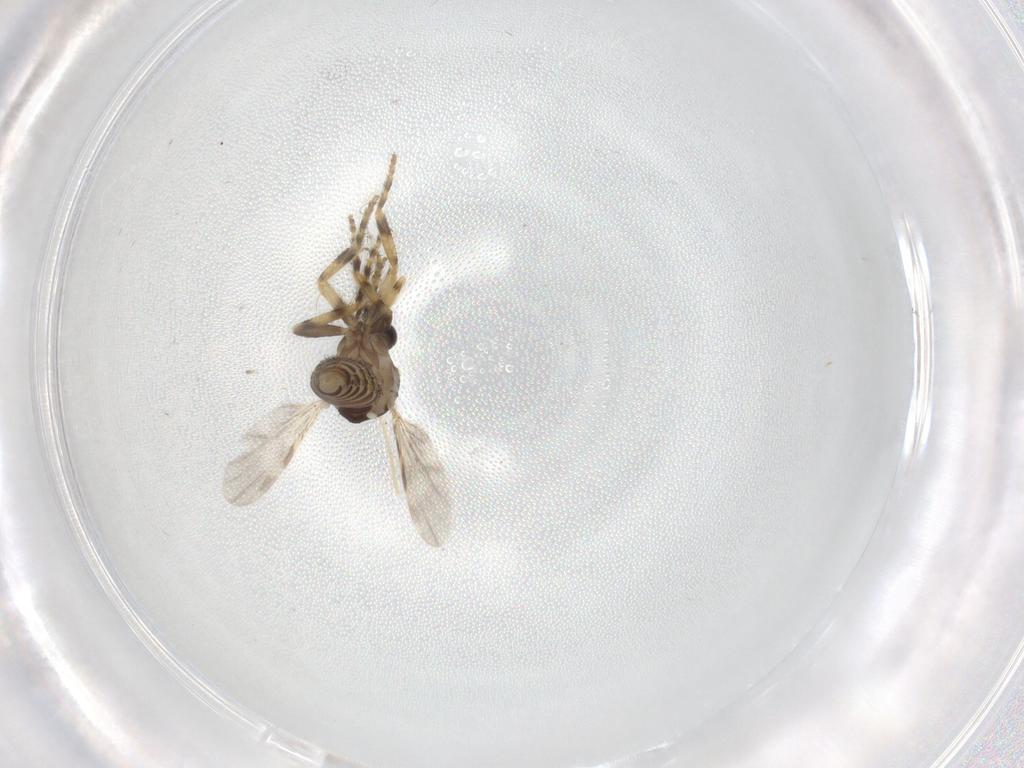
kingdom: Animalia
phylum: Arthropoda
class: Insecta
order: Diptera
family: Ceratopogonidae
